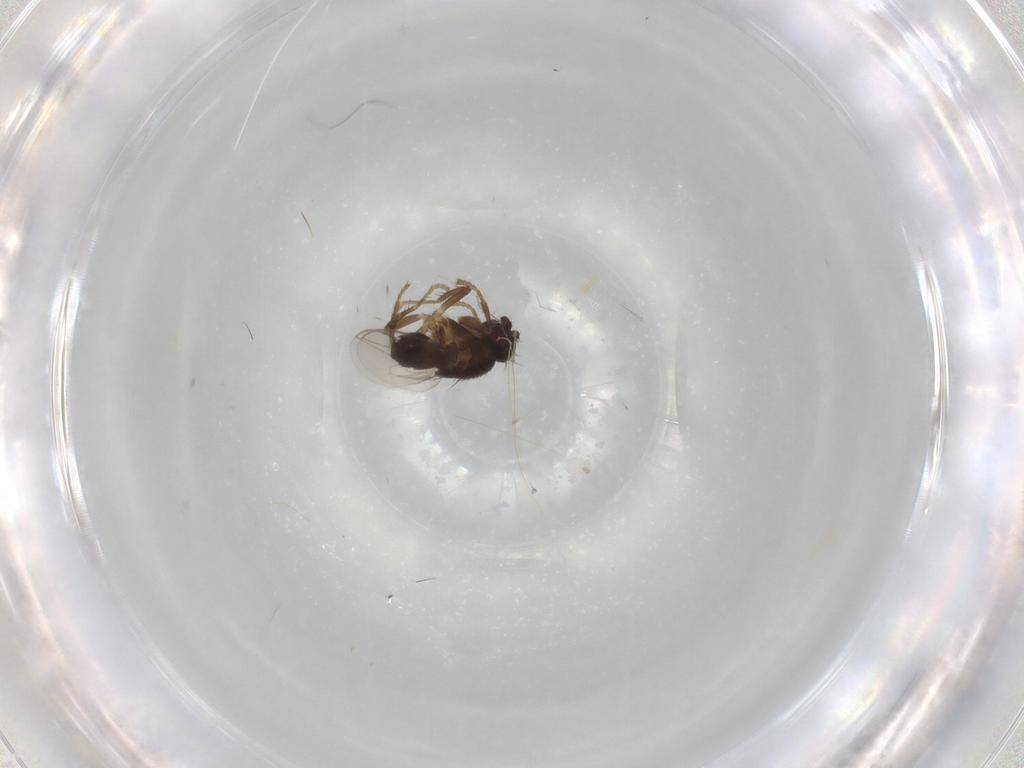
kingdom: Animalia
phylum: Arthropoda
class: Insecta
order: Diptera
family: Sphaeroceridae
